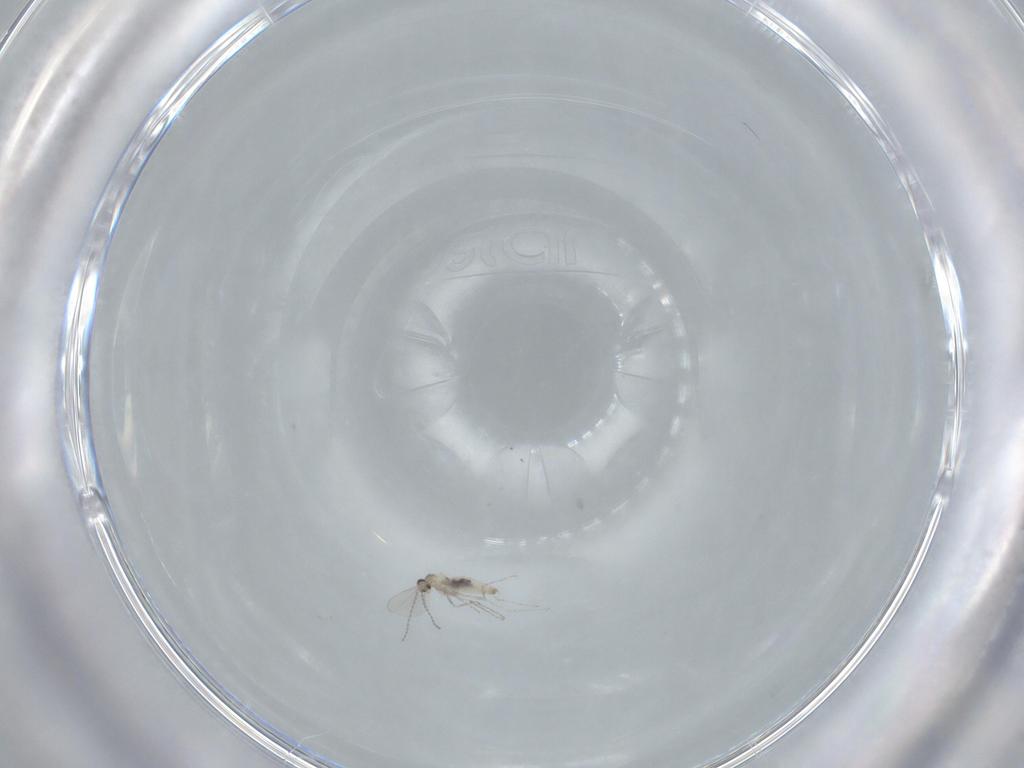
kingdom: Animalia
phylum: Arthropoda
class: Insecta
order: Diptera
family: Cecidomyiidae
